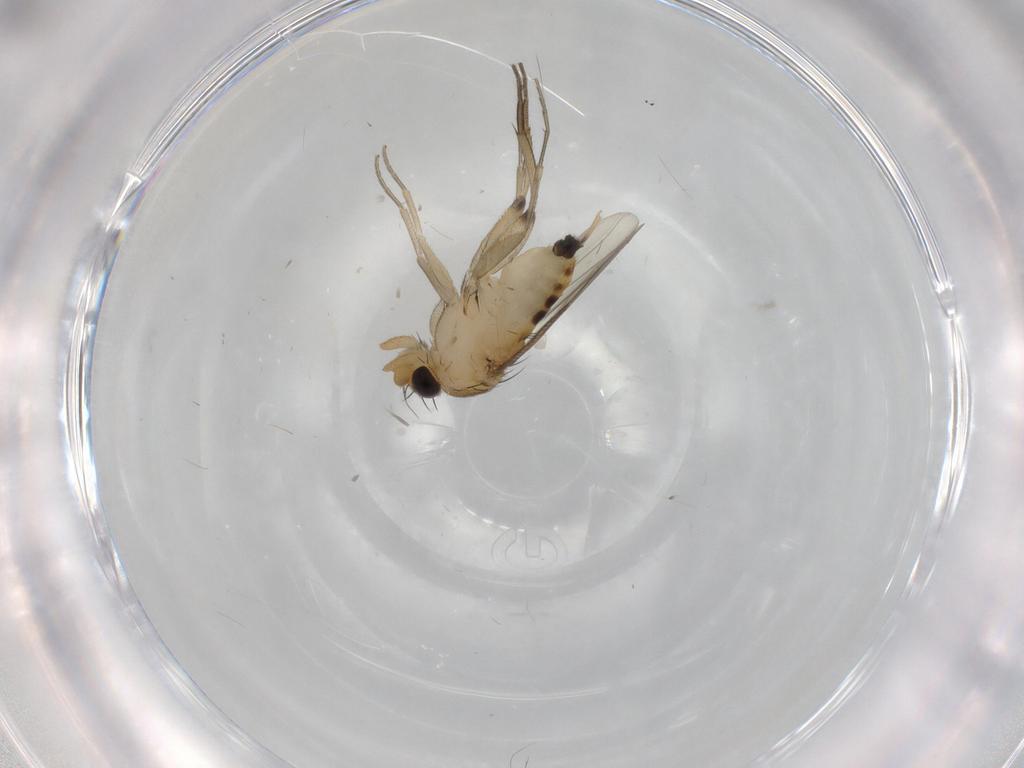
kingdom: Animalia
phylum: Arthropoda
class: Insecta
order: Diptera
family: Phoridae
